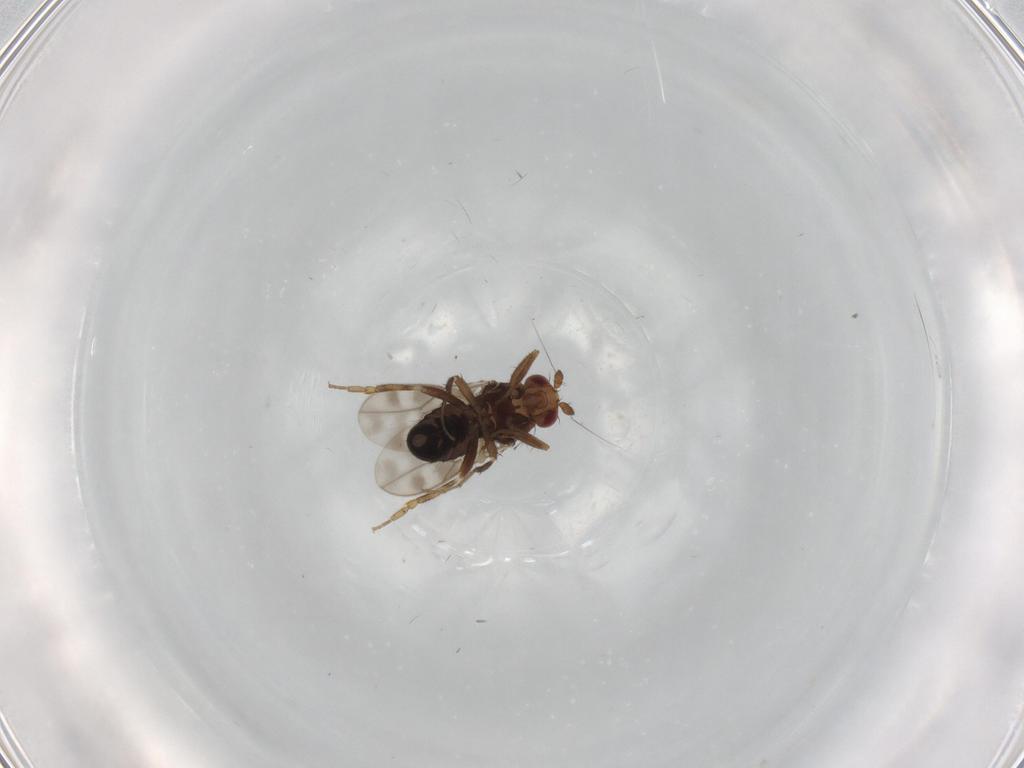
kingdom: Animalia
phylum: Arthropoda
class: Insecta
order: Diptera
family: Sphaeroceridae
